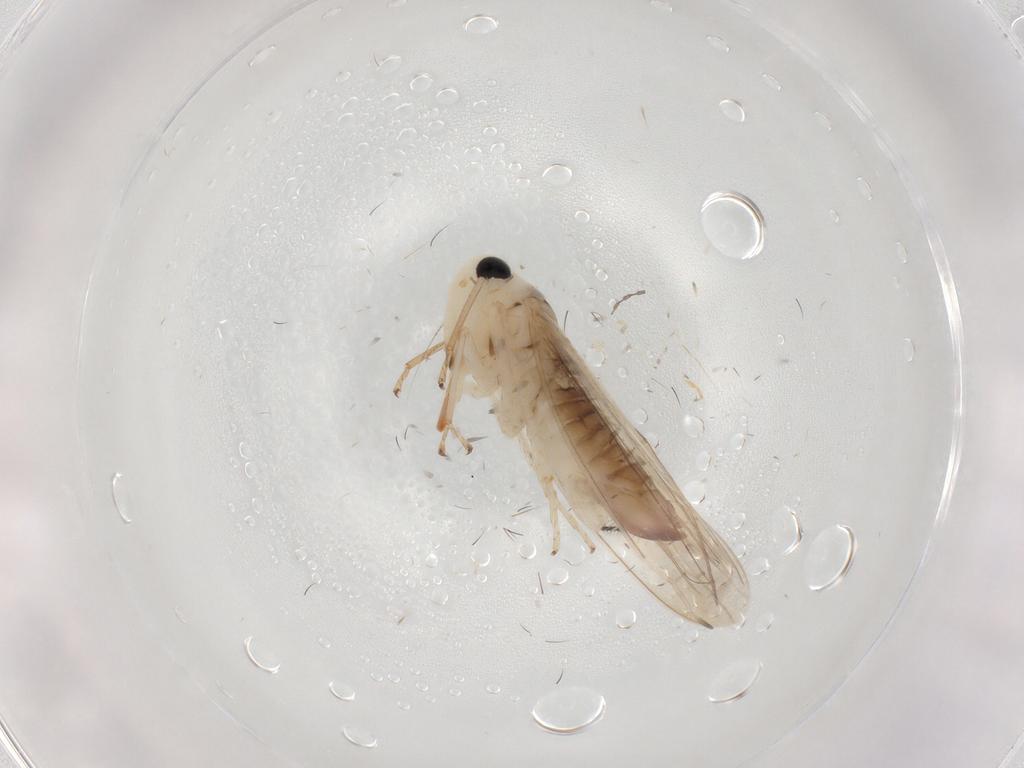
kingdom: Animalia
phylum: Arthropoda
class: Insecta
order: Hemiptera
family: Cicadellidae
